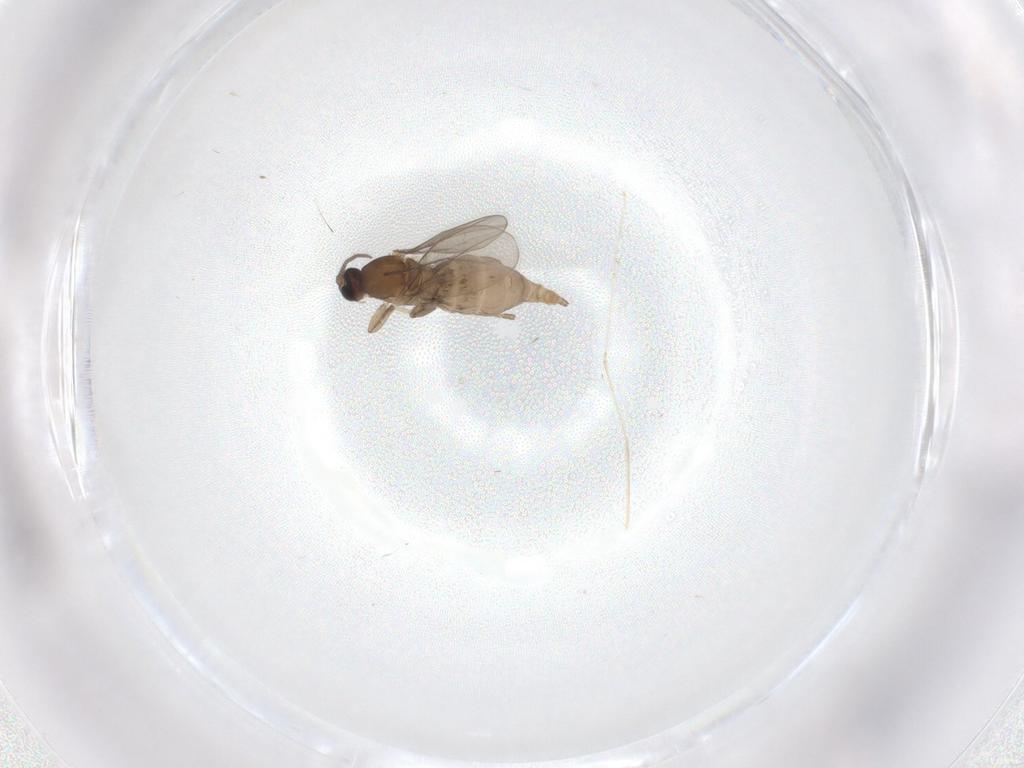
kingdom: Animalia
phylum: Arthropoda
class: Insecta
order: Diptera
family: Cecidomyiidae
